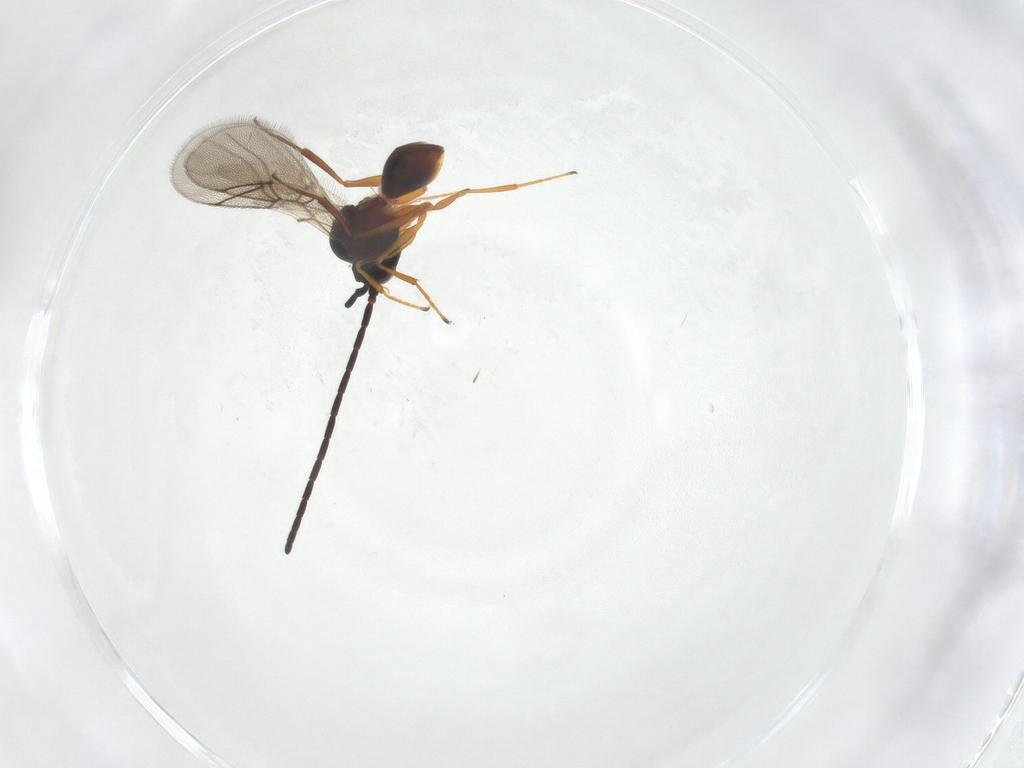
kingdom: Animalia
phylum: Arthropoda
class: Insecta
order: Hymenoptera
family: Figitidae
